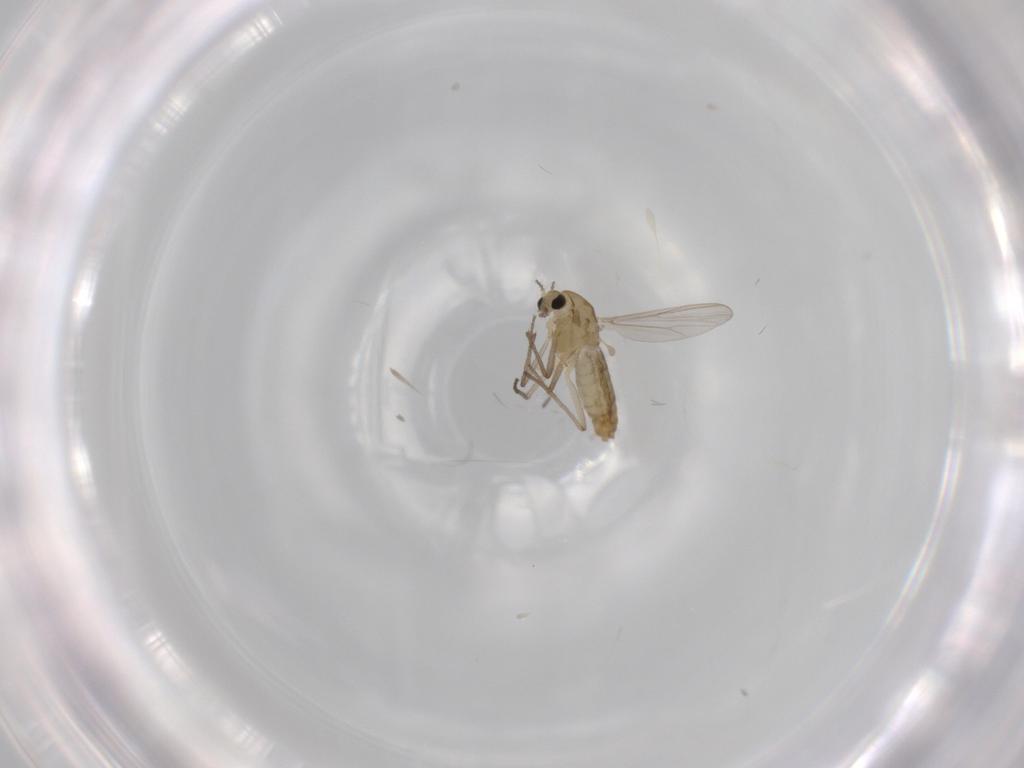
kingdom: Animalia
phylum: Arthropoda
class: Insecta
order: Diptera
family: Chironomidae
